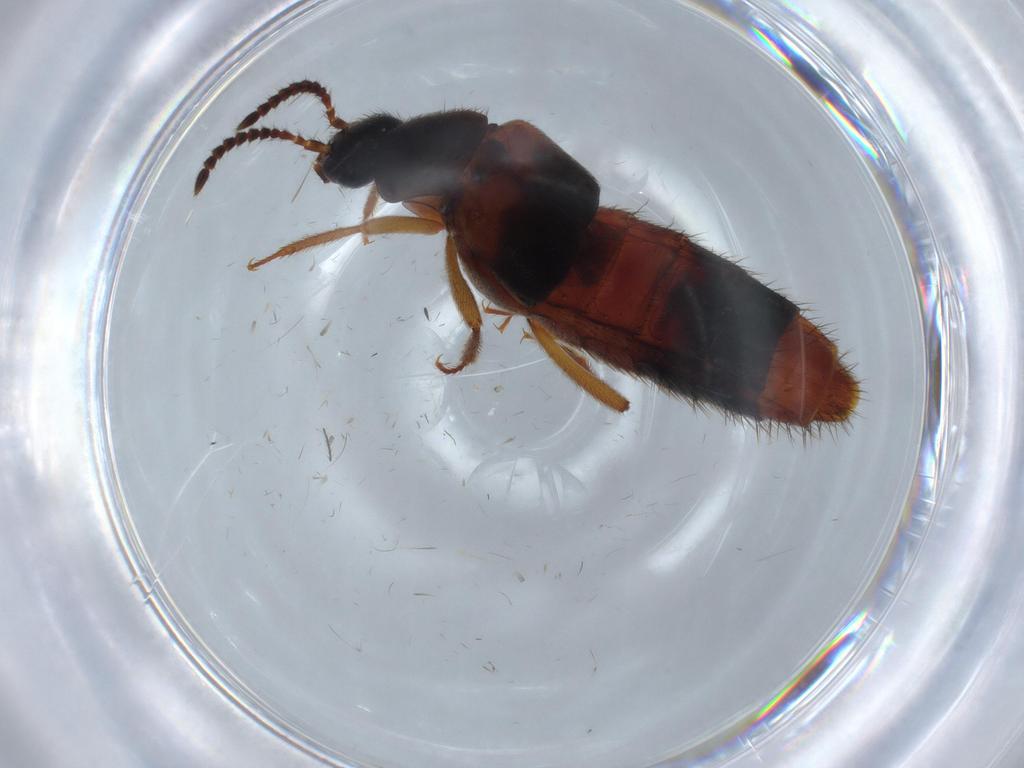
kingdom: Animalia
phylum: Arthropoda
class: Insecta
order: Coleoptera
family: Staphylinidae
